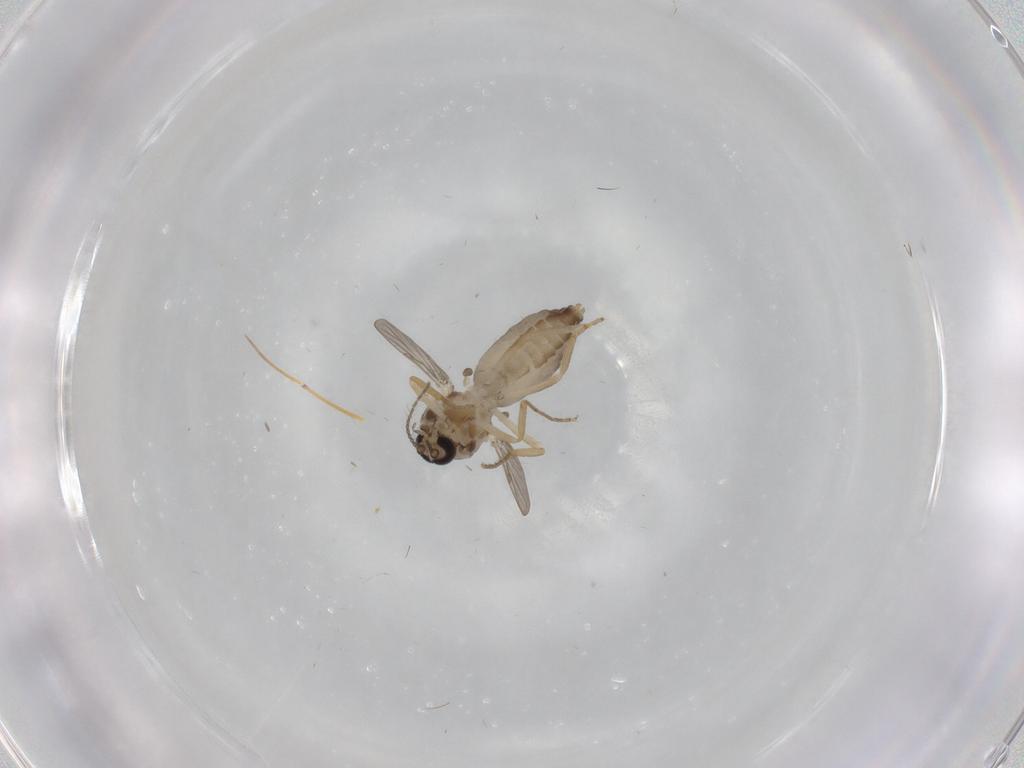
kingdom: Animalia
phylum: Arthropoda
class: Insecta
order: Diptera
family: Ceratopogonidae
